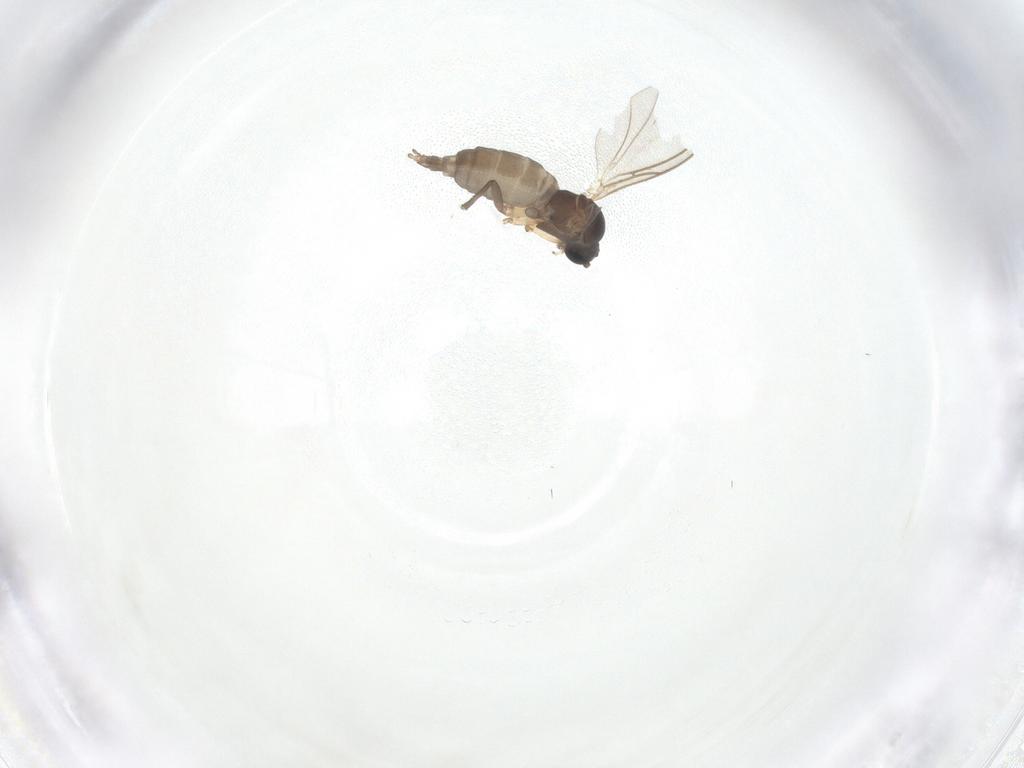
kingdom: Animalia
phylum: Arthropoda
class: Insecta
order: Diptera
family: Sciaridae
